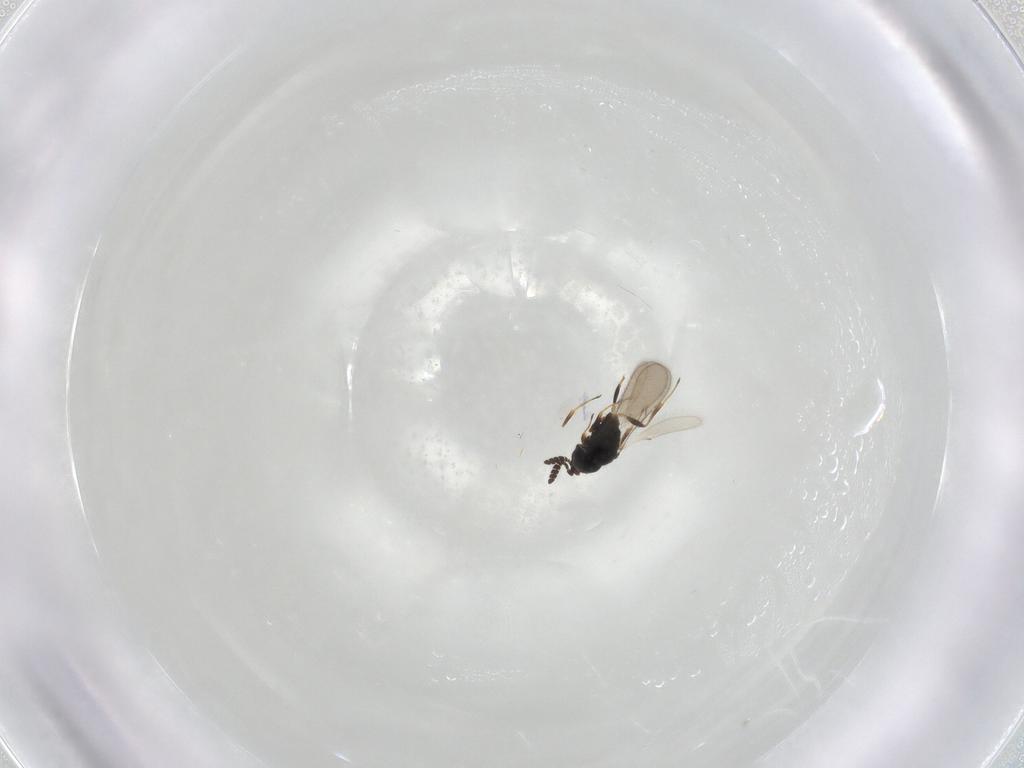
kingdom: Animalia
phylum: Arthropoda
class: Insecta
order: Hymenoptera
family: Scelionidae
